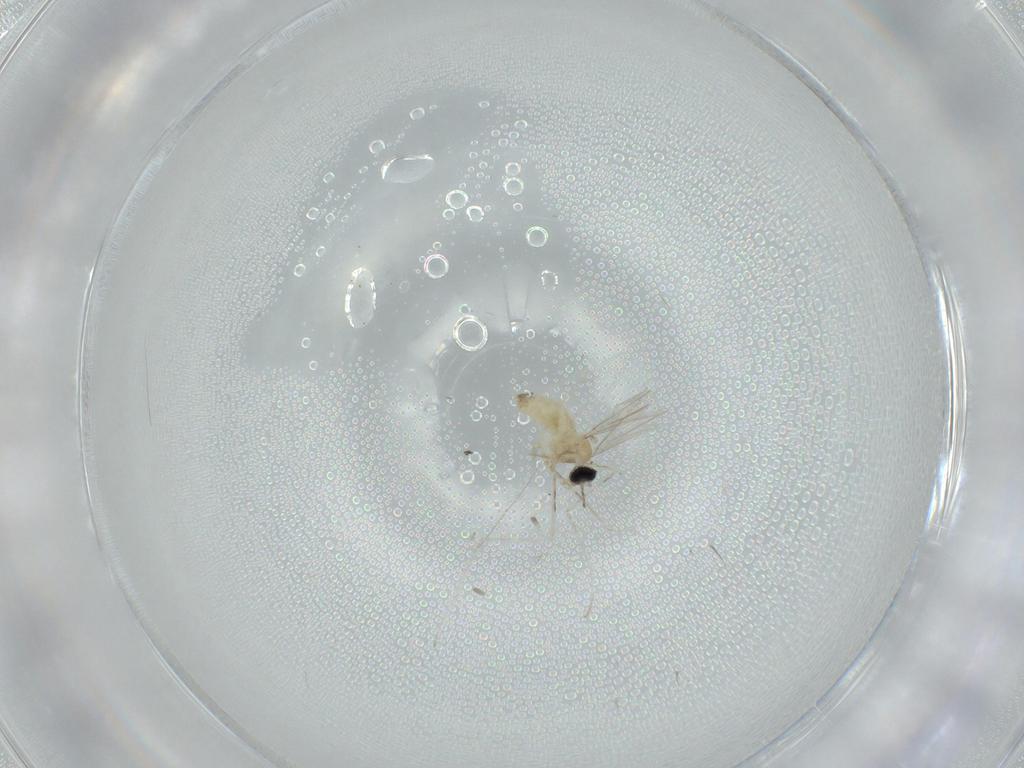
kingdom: Animalia
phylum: Arthropoda
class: Insecta
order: Diptera
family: Cecidomyiidae
